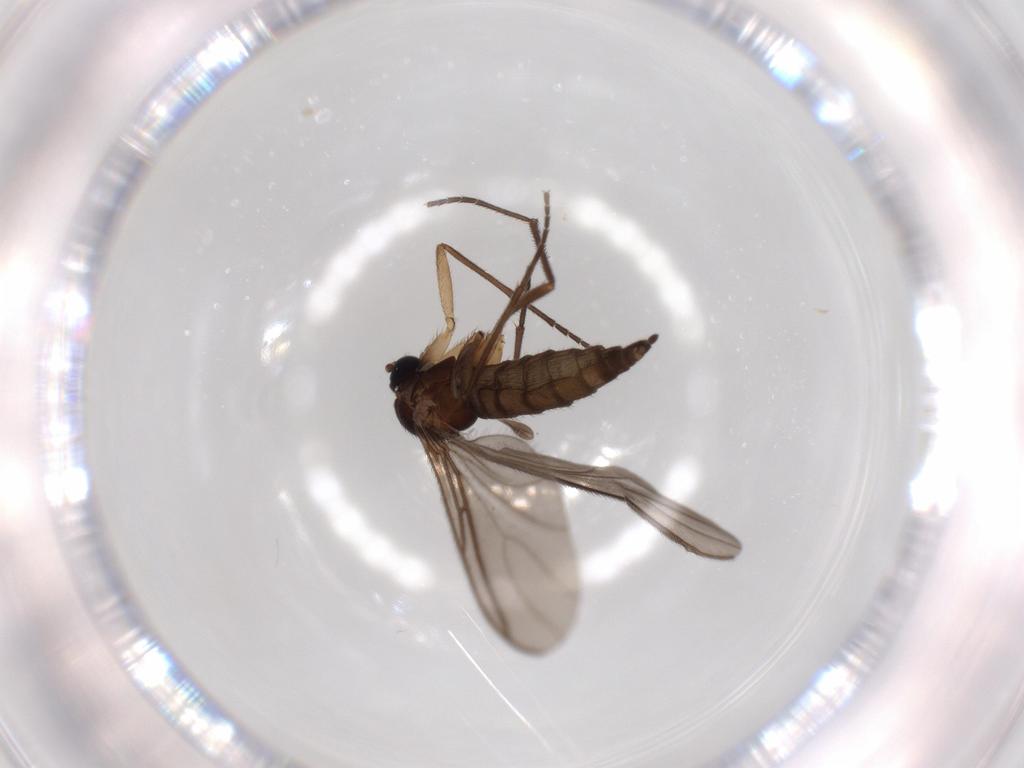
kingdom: Animalia
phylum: Arthropoda
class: Insecta
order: Diptera
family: Sciaridae
